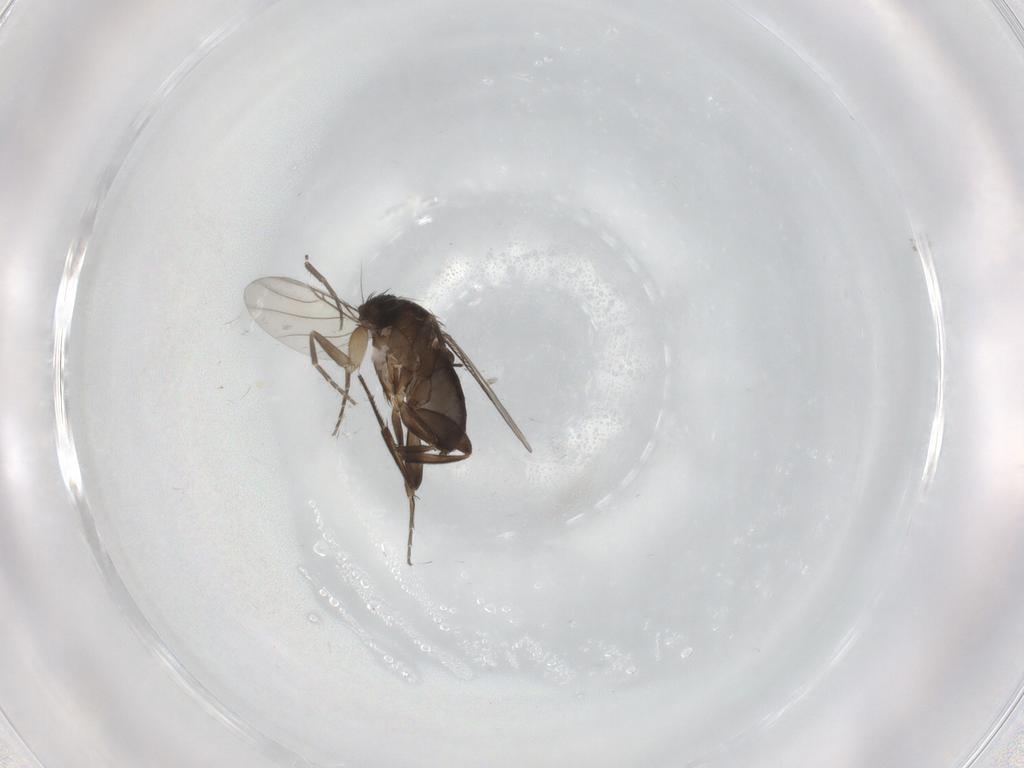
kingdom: Animalia
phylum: Arthropoda
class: Insecta
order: Diptera
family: Phoridae
